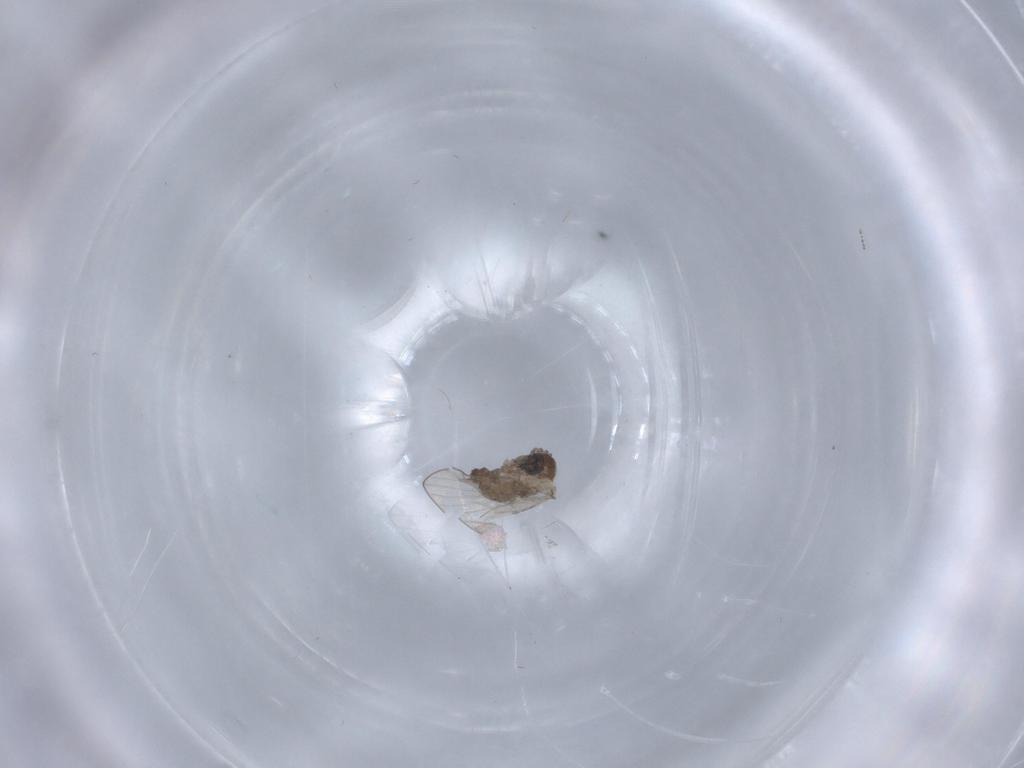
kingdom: Animalia
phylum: Arthropoda
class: Insecta
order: Diptera
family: Psychodidae
